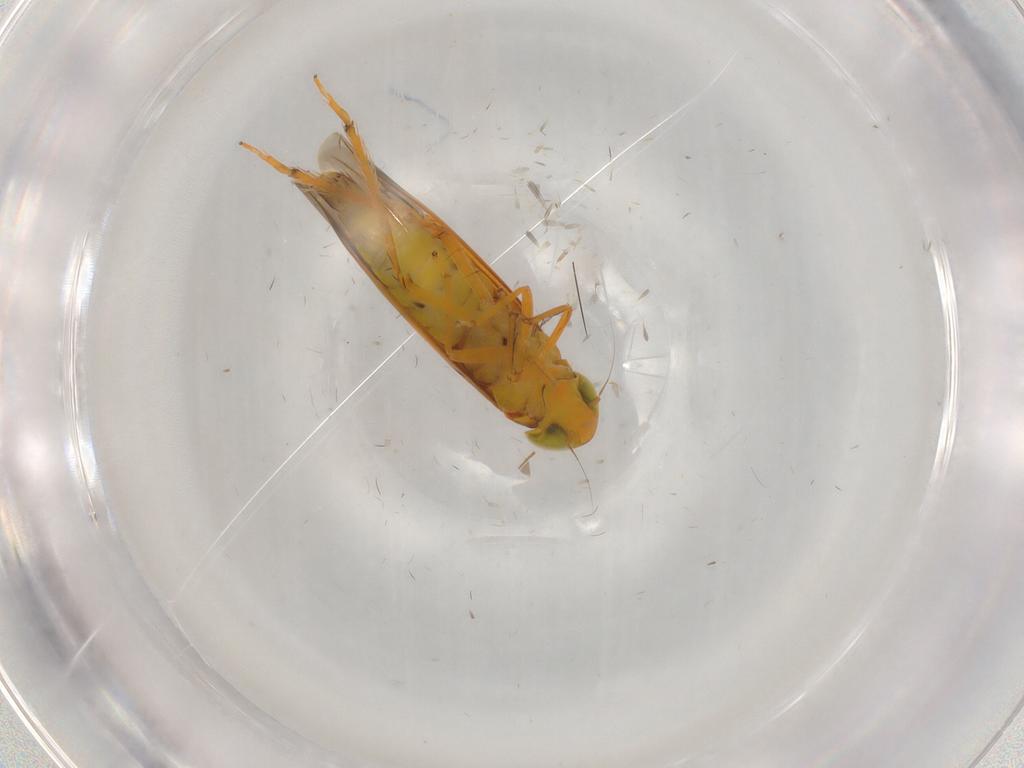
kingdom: Animalia
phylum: Arthropoda
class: Insecta
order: Hemiptera
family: Cicadellidae
